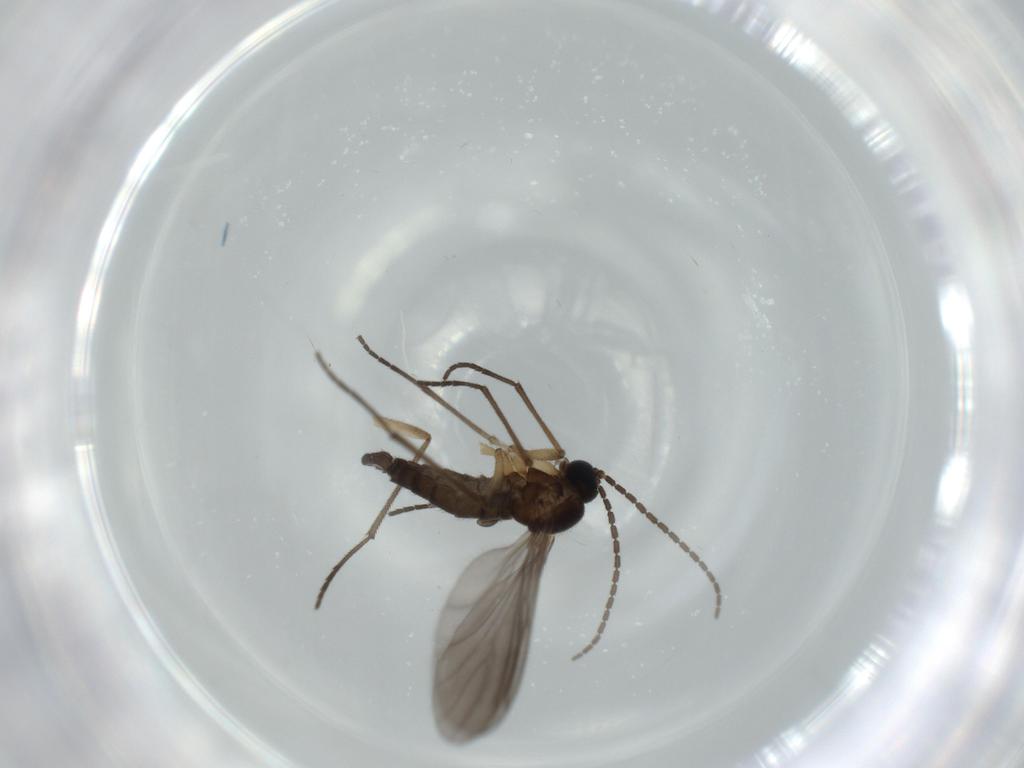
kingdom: Animalia
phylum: Arthropoda
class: Insecta
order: Diptera
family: Sciaridae
